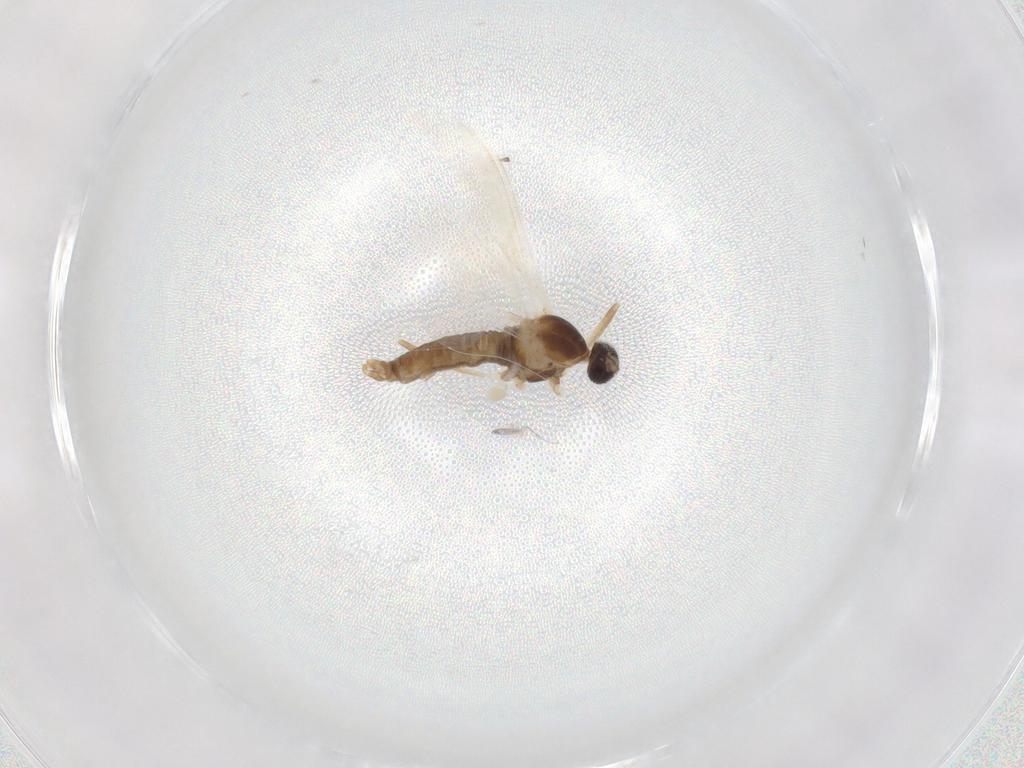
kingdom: Animalia
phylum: Arthropoda
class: Insecta
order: Diptera
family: Cecidomyiidae
